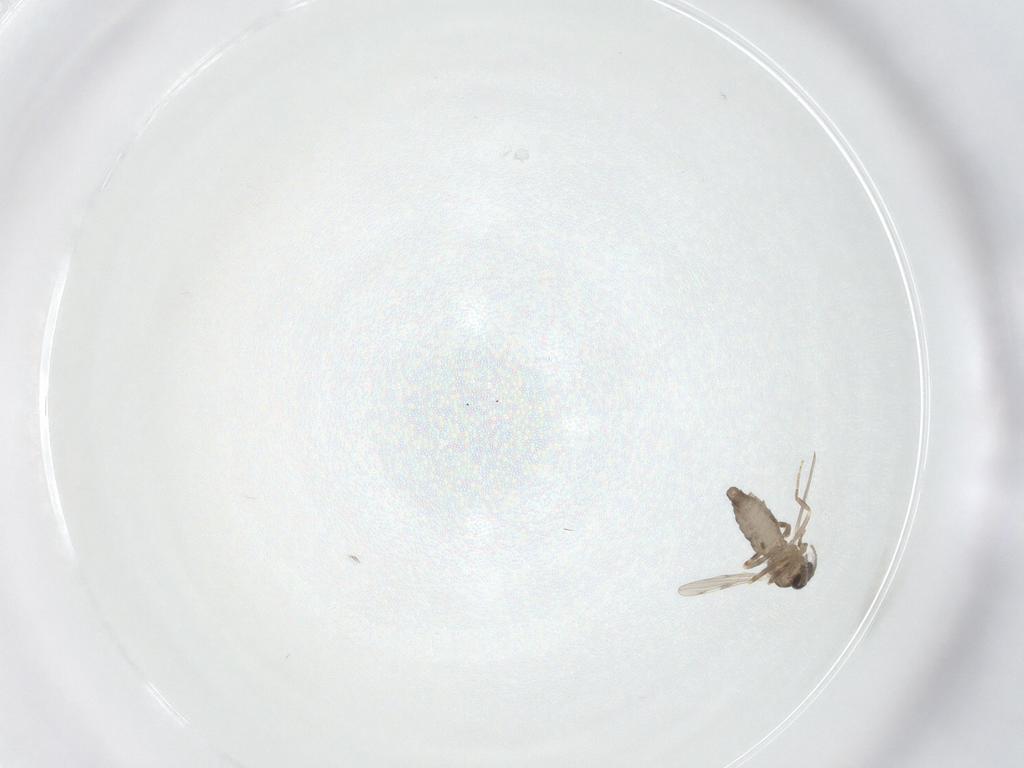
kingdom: Animalia
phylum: Arthropoda
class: Insecta
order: Diptera
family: Ceratopogonidae
